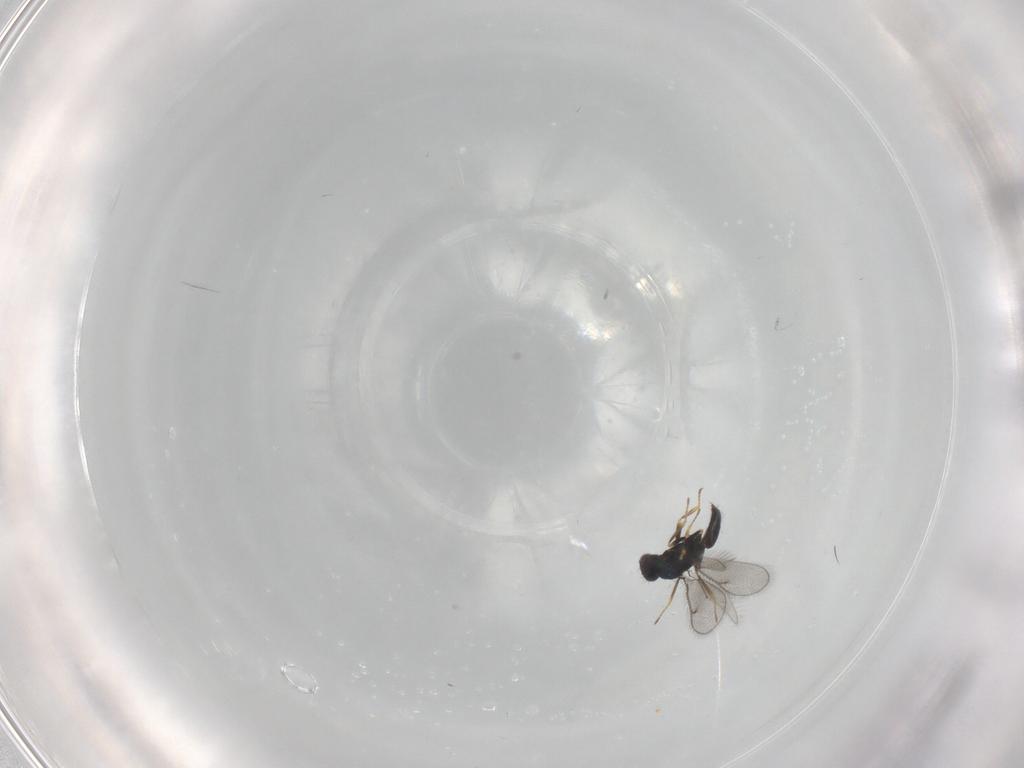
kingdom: Animalia
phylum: Arthropoda
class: Insecta
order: Hymenoptera
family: Eulophidae
